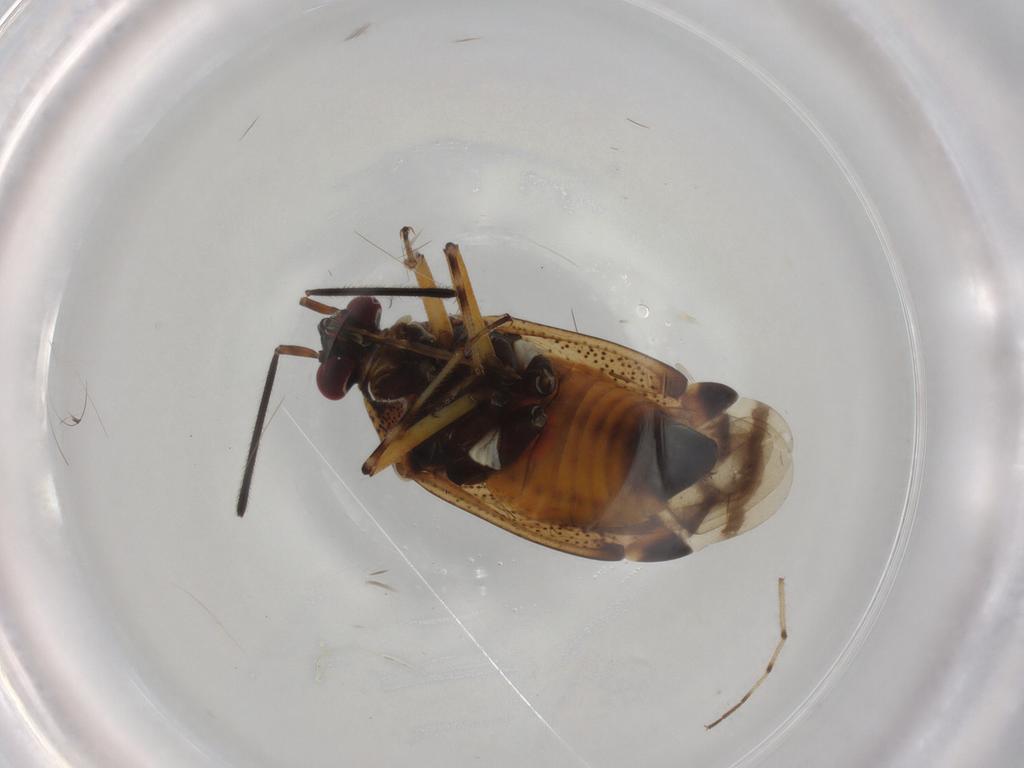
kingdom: Animalia
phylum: Arthropoda
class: Insecta
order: Hemiptera
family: Miridae
